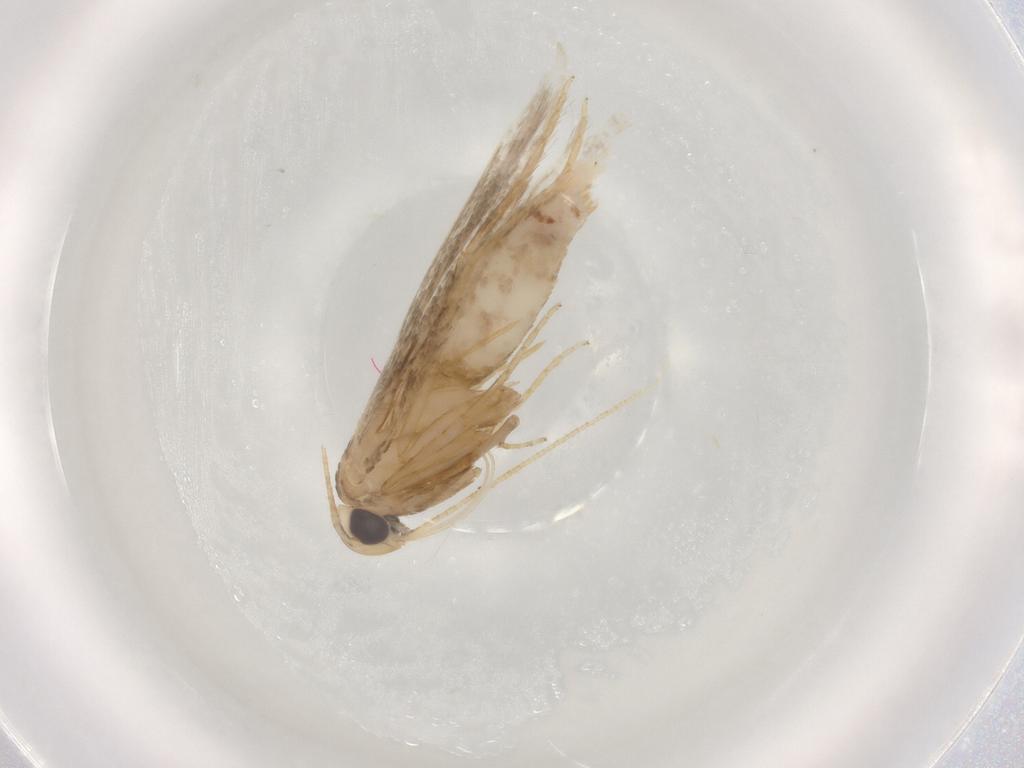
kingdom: Animalia
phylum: Arthropoda
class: Insecta
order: Lepidoptera
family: Coleophoridae
